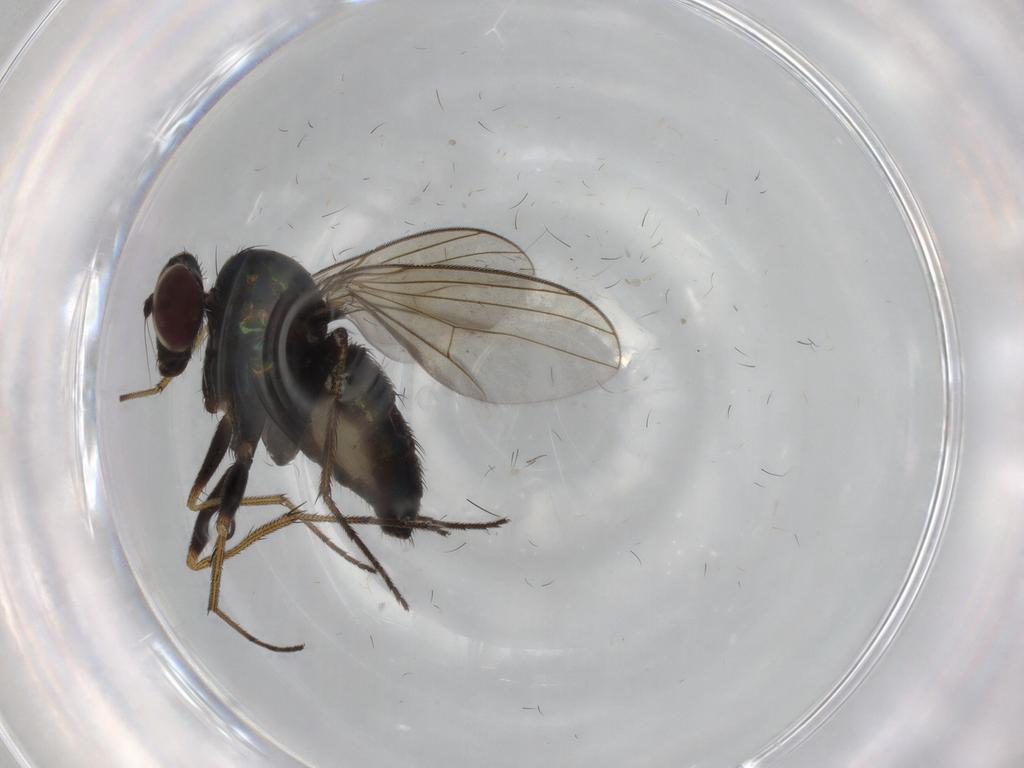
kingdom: Animalia
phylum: Arthropoda
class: Insecta
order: Diptera
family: Dolichopodidae
